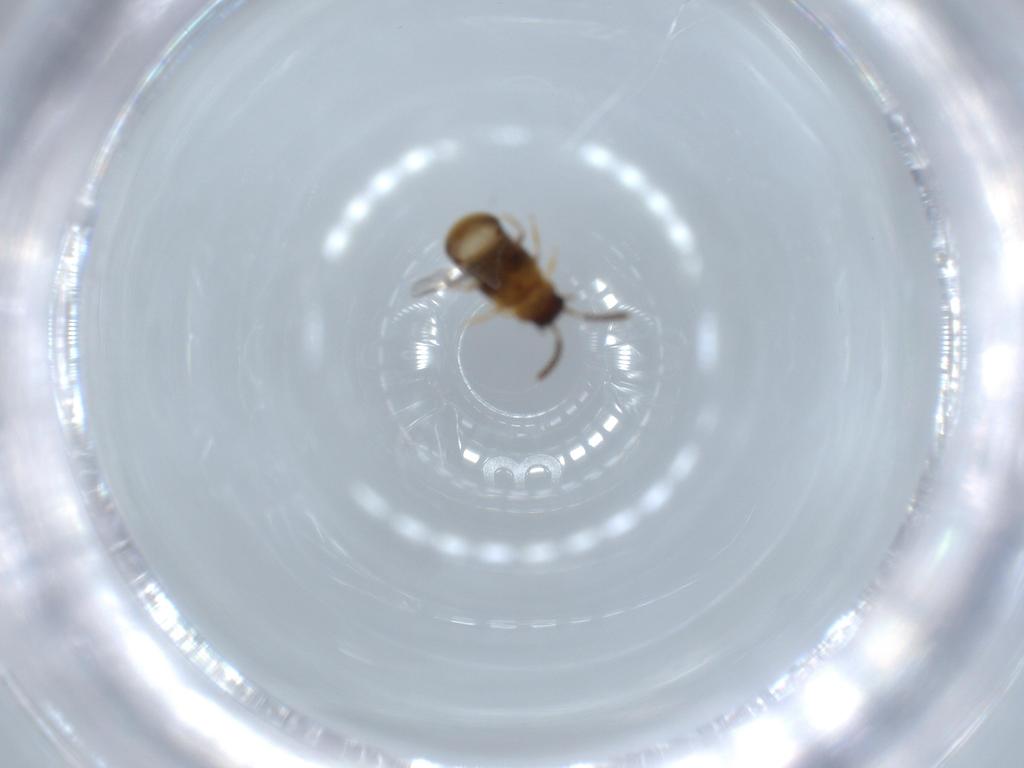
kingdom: Animalia
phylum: Arthropoda
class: Insecta
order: Coleoptera
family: Staphylinidae
